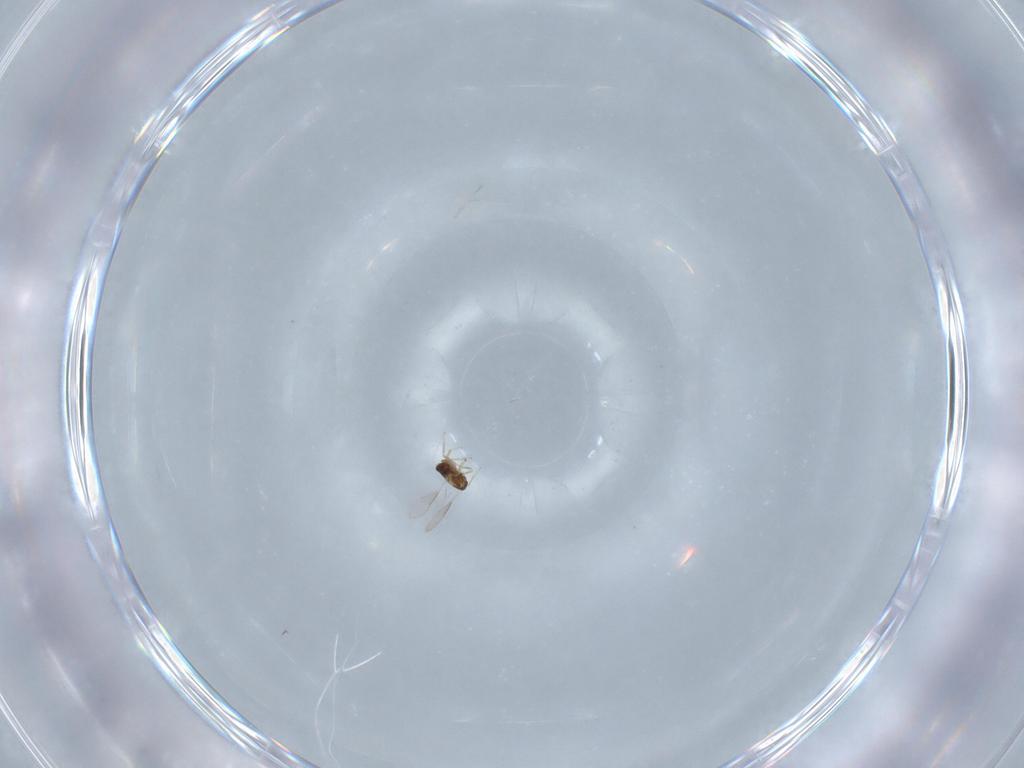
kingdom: Animalia
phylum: Arthropoda
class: Insecta
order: Hymenoptera
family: Aphelinidae
